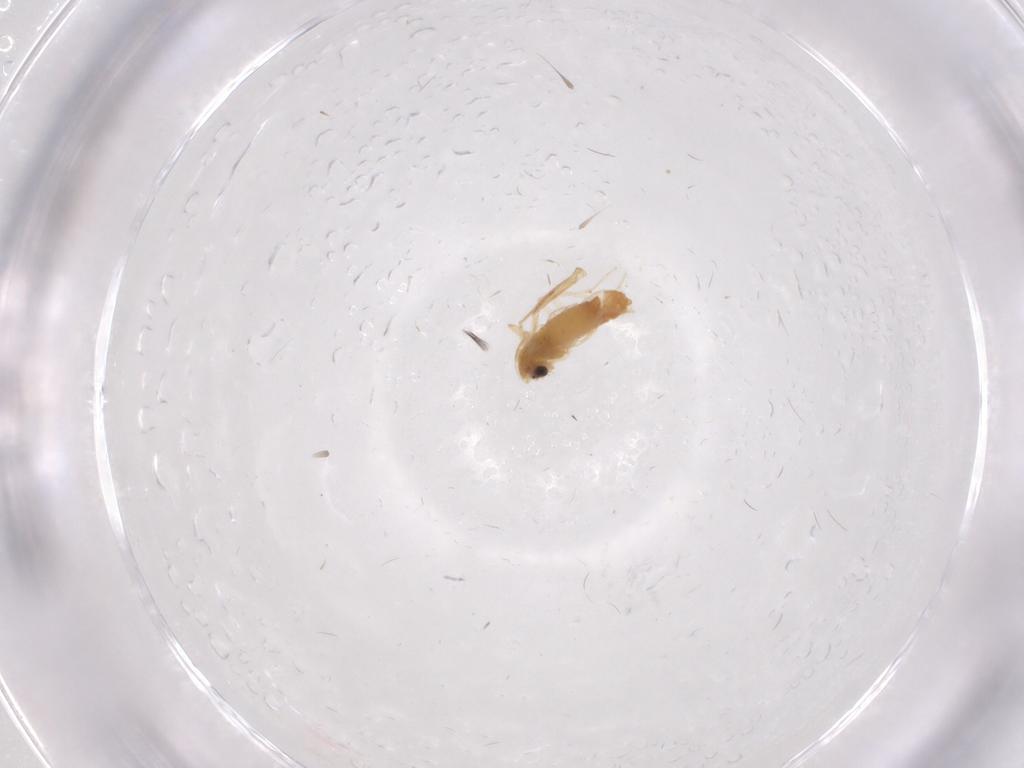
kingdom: Animalia
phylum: Arthropoda
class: Insecta
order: Diptera
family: Chironomidae
